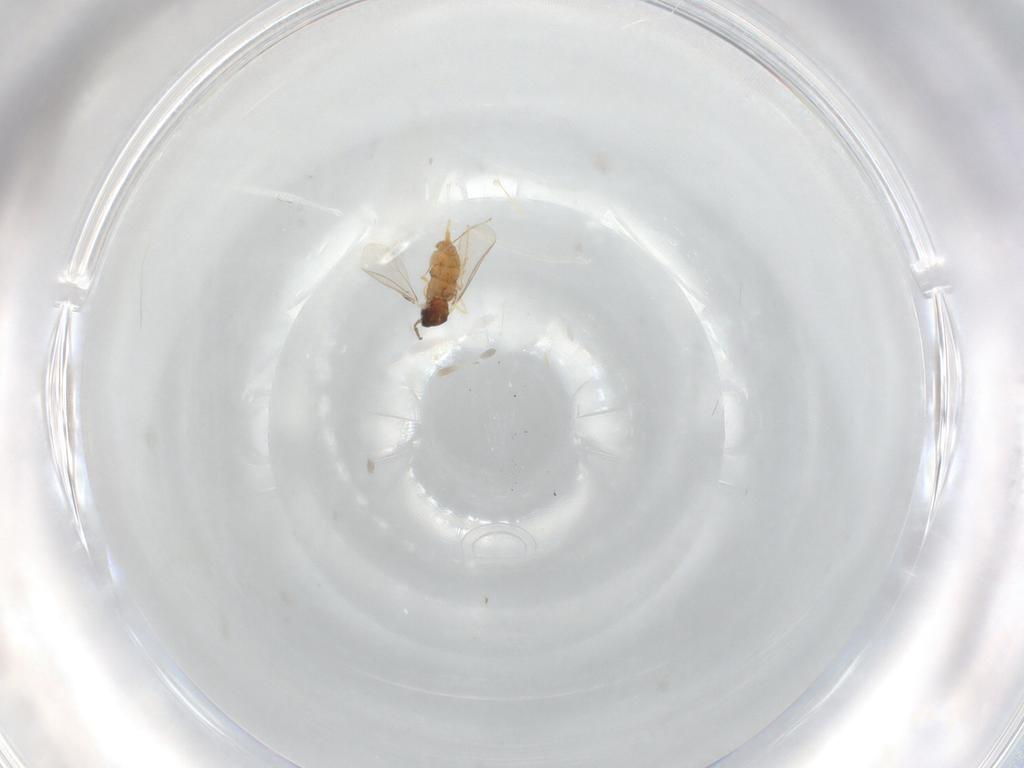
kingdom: Animalia
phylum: Arthropoda
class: Insecta
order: Diptera
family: Cecidomyiidae
